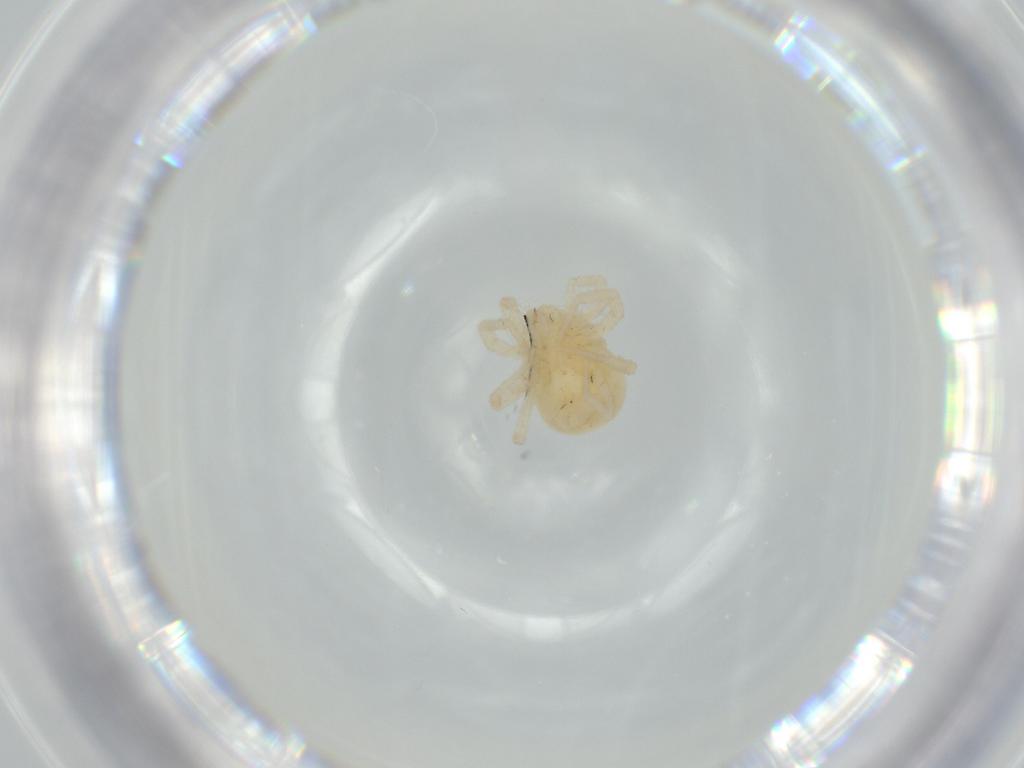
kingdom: Animalia
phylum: Arthropoda
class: Arachnida
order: Trombidiformes
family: Anystidae
